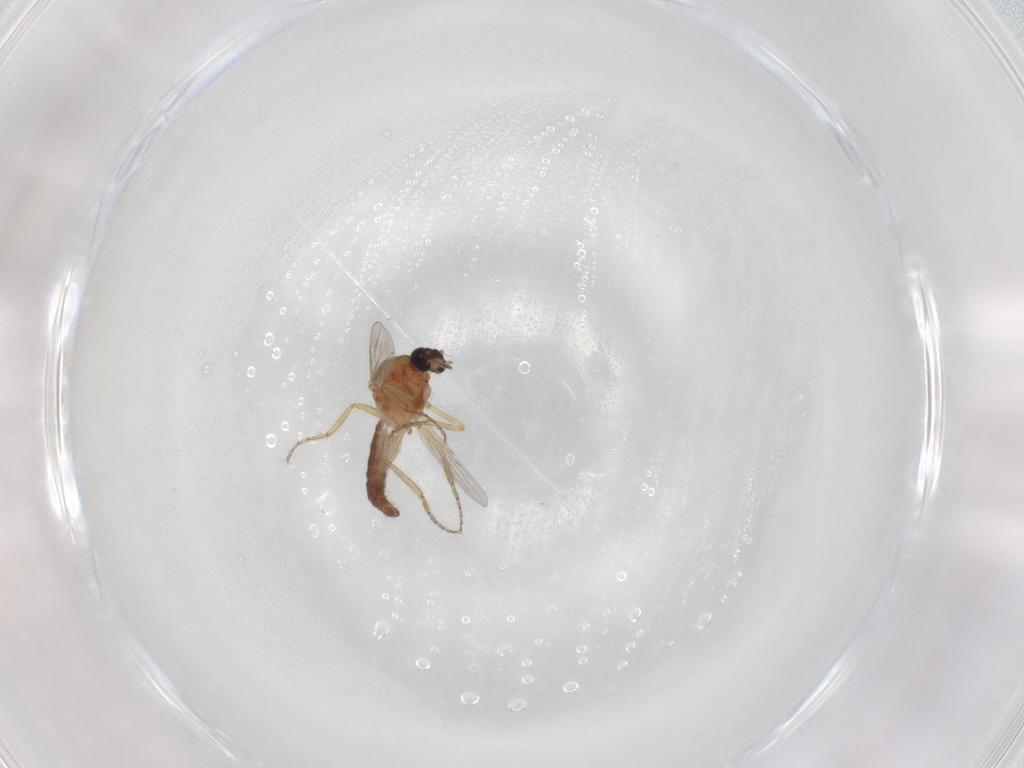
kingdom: Animalia
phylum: Arthropoda
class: Insecta
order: Diptera
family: Ceratopogonidae
